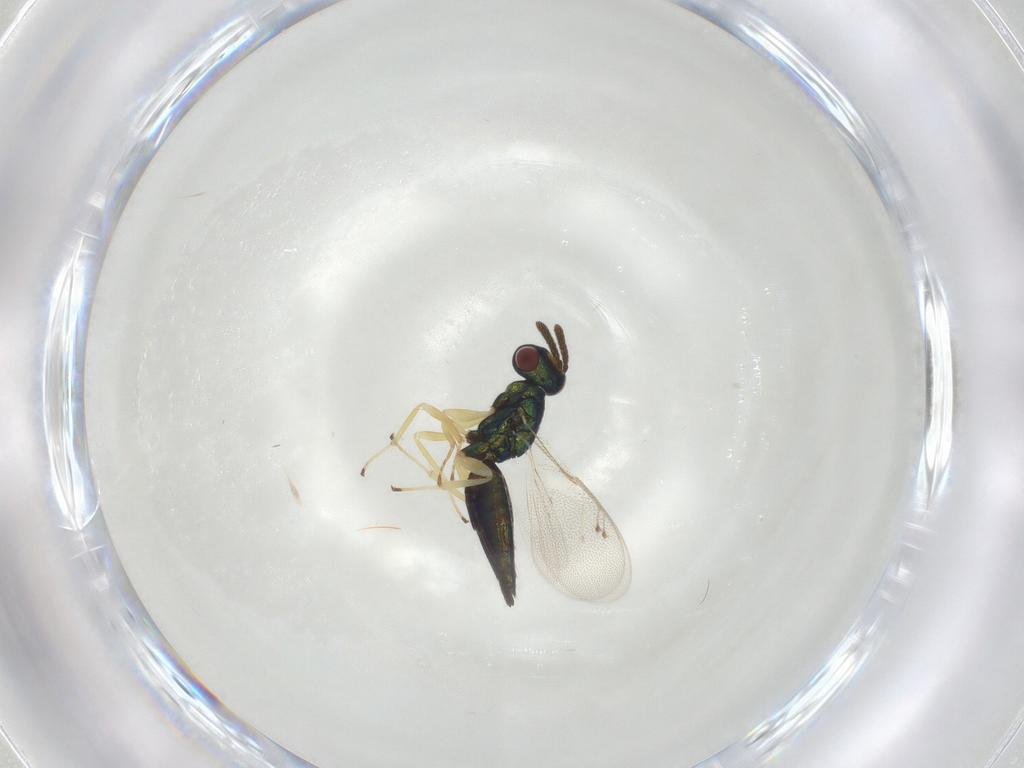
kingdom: Animalia
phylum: Arthropoda
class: Insecta
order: Hymenoptera
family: Pteromalidae
